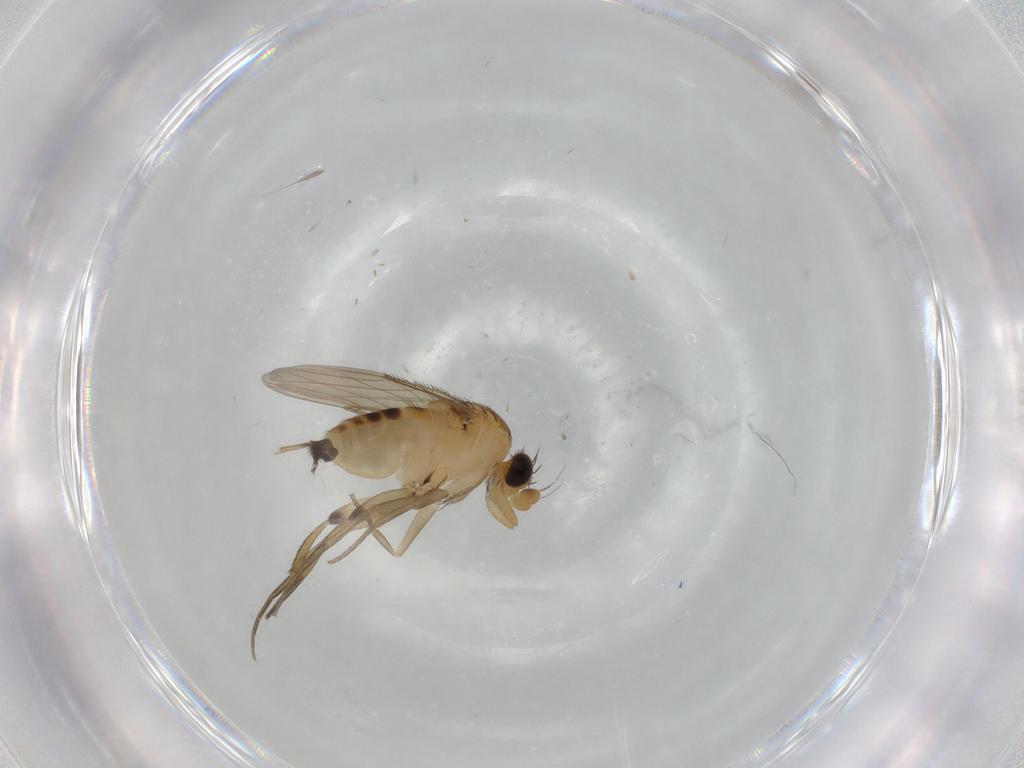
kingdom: Animalia
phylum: Arthropoda
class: Insecta
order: Diptera
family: Phoridae
